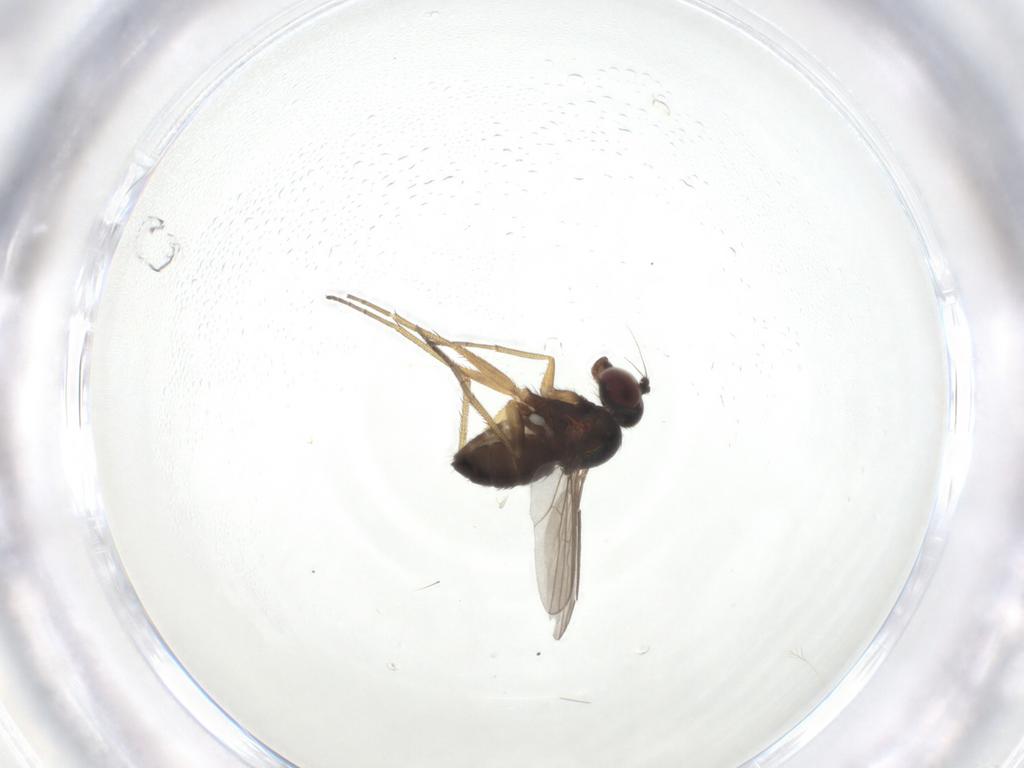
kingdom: Animalia
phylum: Arthropoda
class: Insecta
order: Diptera
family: Dolichopodidae
